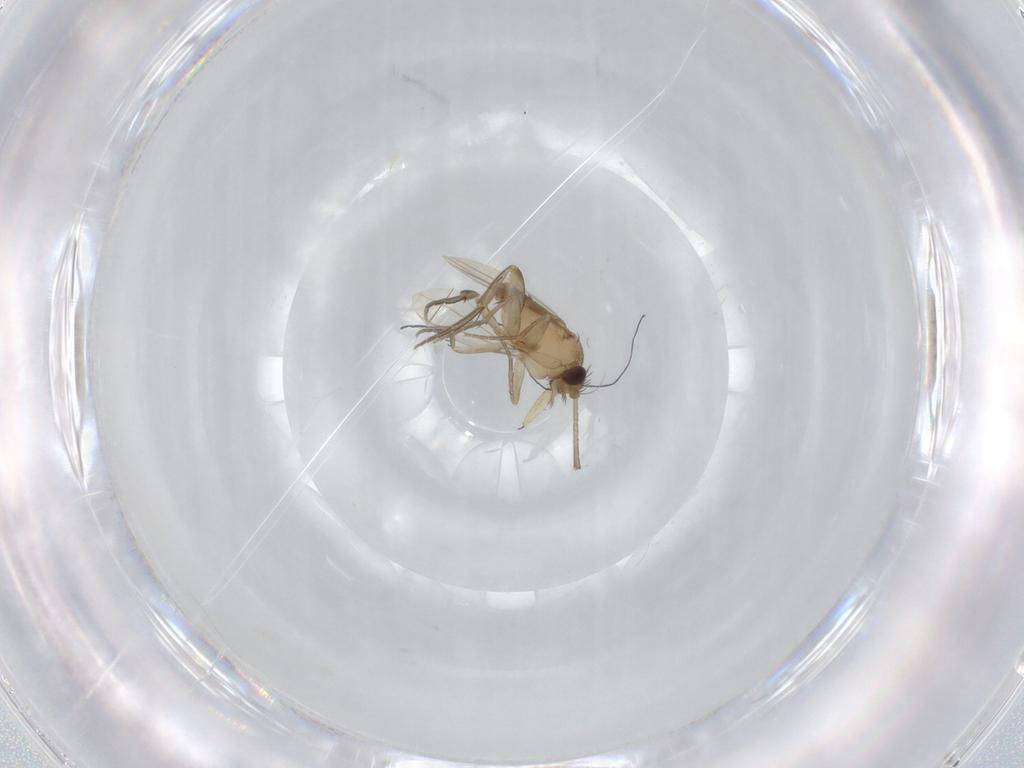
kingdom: Animalia
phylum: Arthropoda
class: Insecta
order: Diptera
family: Phoridae
